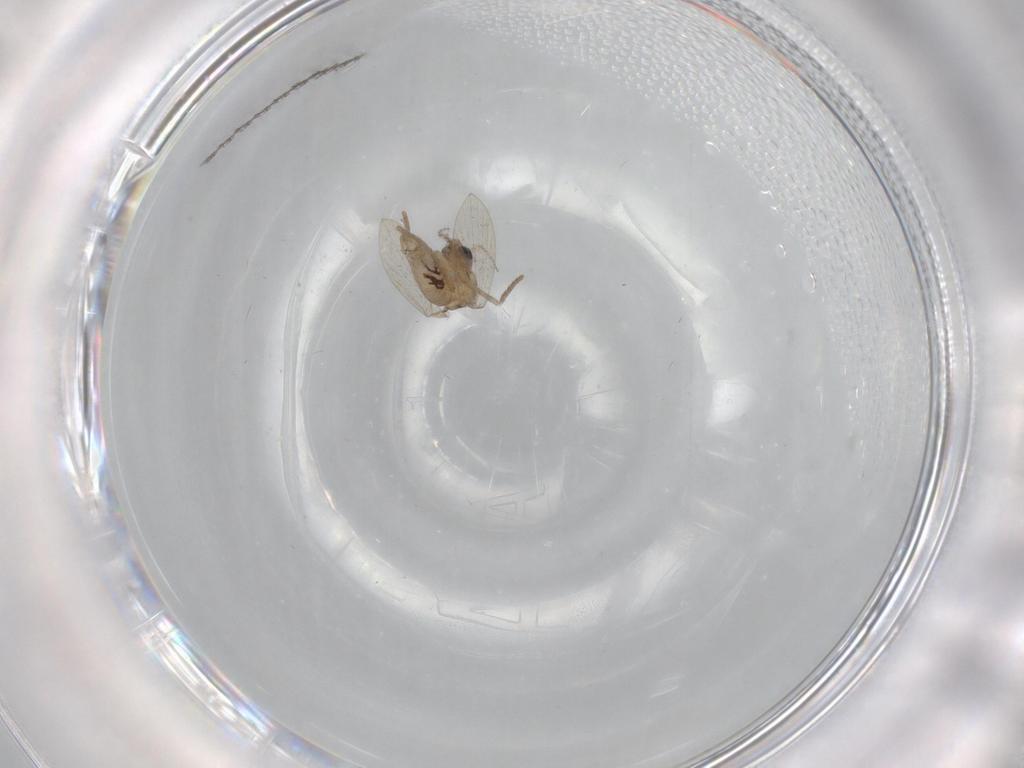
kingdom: Animalia
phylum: Arthropoda
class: Insecta
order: Diptera
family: Psychodidae
